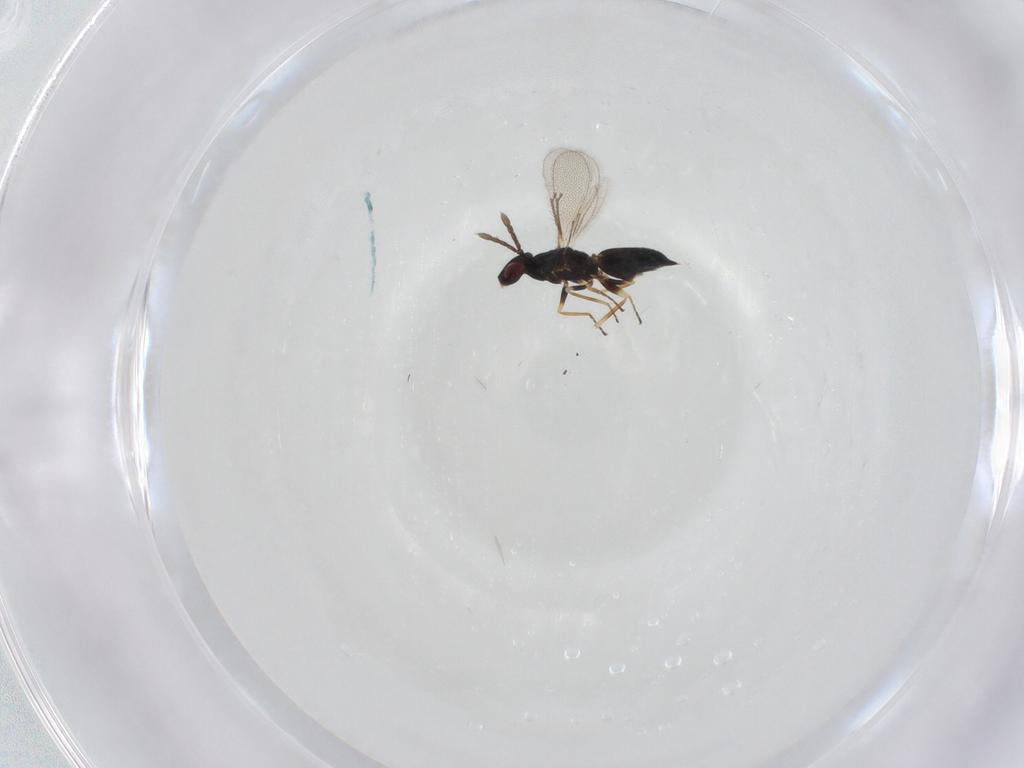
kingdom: Animalia
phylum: Arthropoda
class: Insecta
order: Hymenoptera
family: Eulophidae
